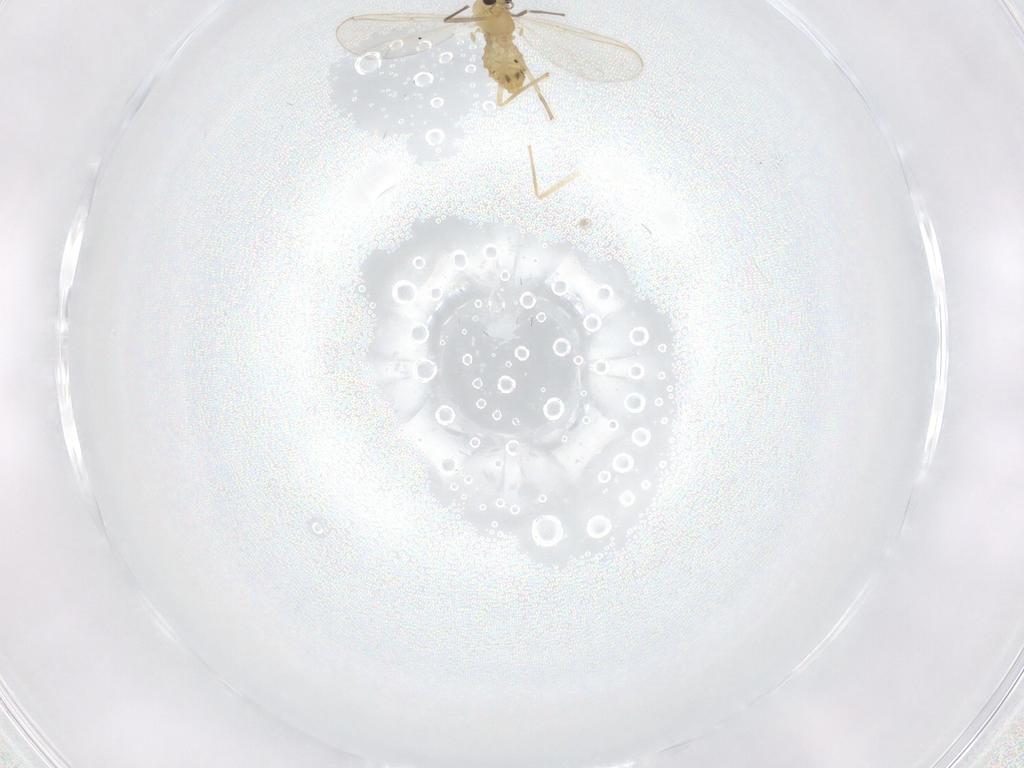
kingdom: Animalia
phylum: Arthropoda
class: Insecta
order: Diptera
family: Chironomidae
